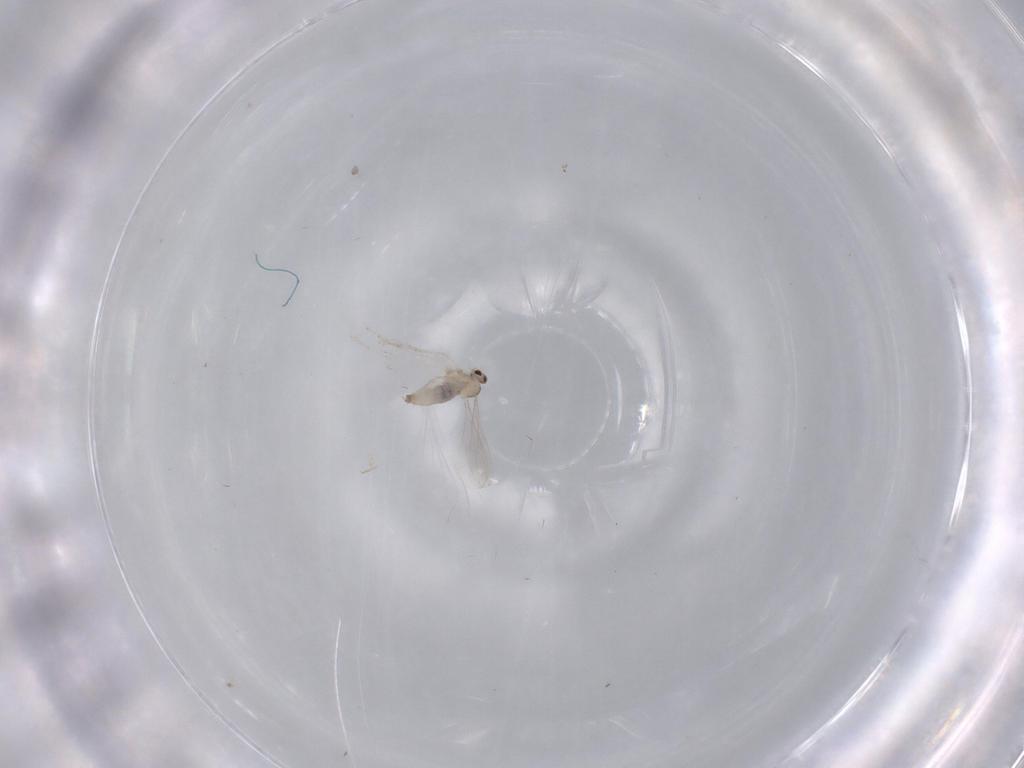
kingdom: Animalia
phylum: Arthropoda
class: Insecta
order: Diptera
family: Cecidomyiidae
